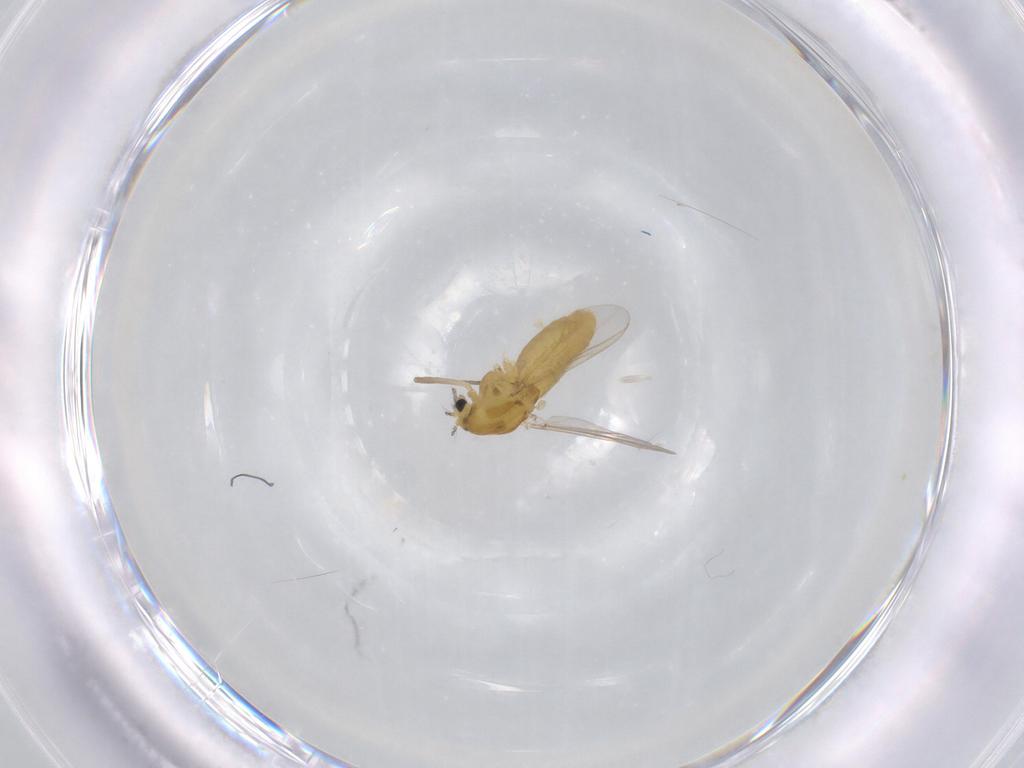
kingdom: Animalia
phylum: Arthropoda
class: Insecta
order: Diptera
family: Chironomidae
